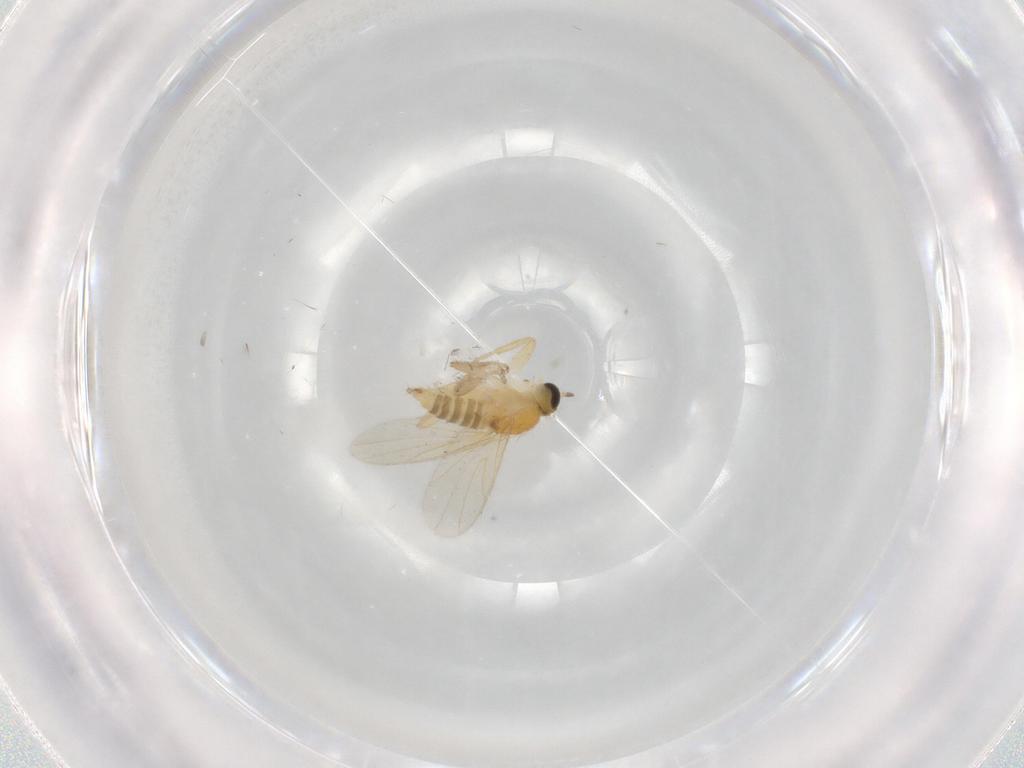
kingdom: Animalia
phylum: Arthropoda
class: Insecta
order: Diptera
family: Hybotidae
